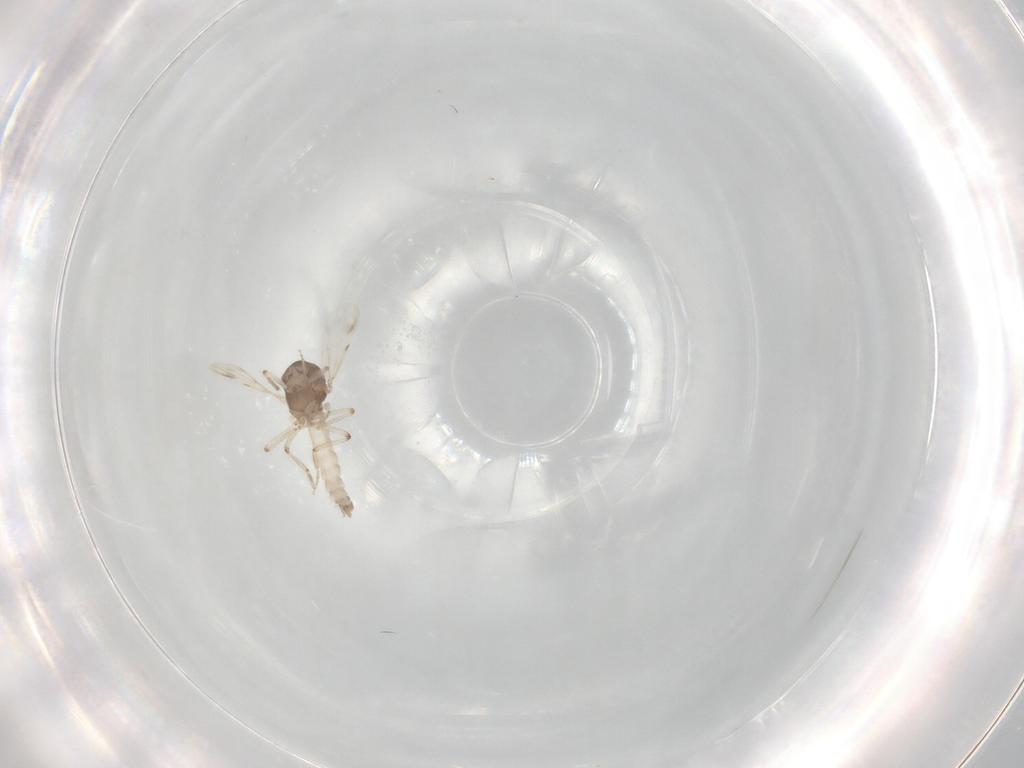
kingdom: Animalia
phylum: Arthropoda
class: Insecta
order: Diptera
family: Ceratopogonidae
